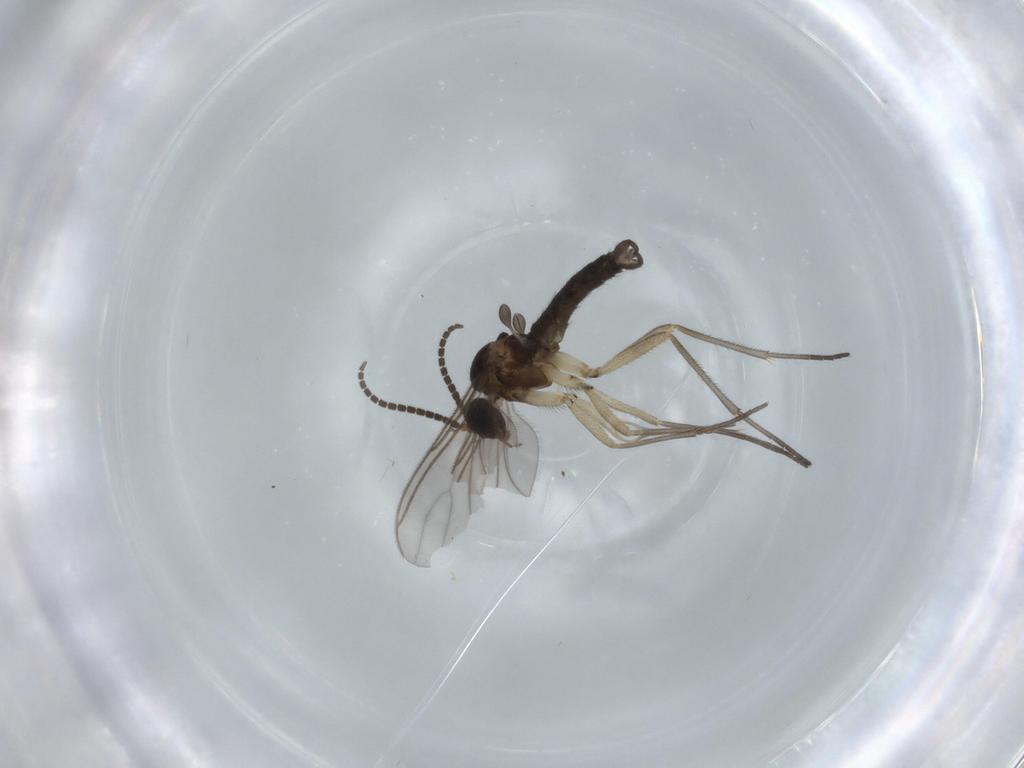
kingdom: Animalia
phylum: Arthropoda
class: Insecta
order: Diptera
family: Sciaridae
